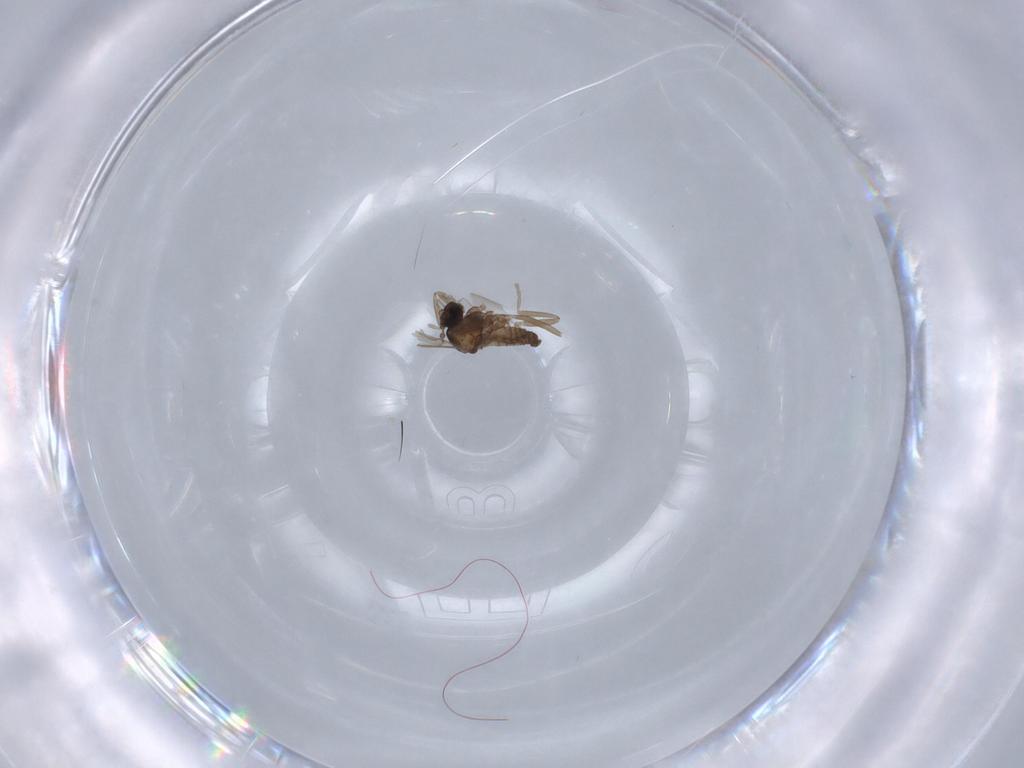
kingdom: Animalia
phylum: Arthropoda
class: Insecta
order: Diptera
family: Cecidomyiidae
